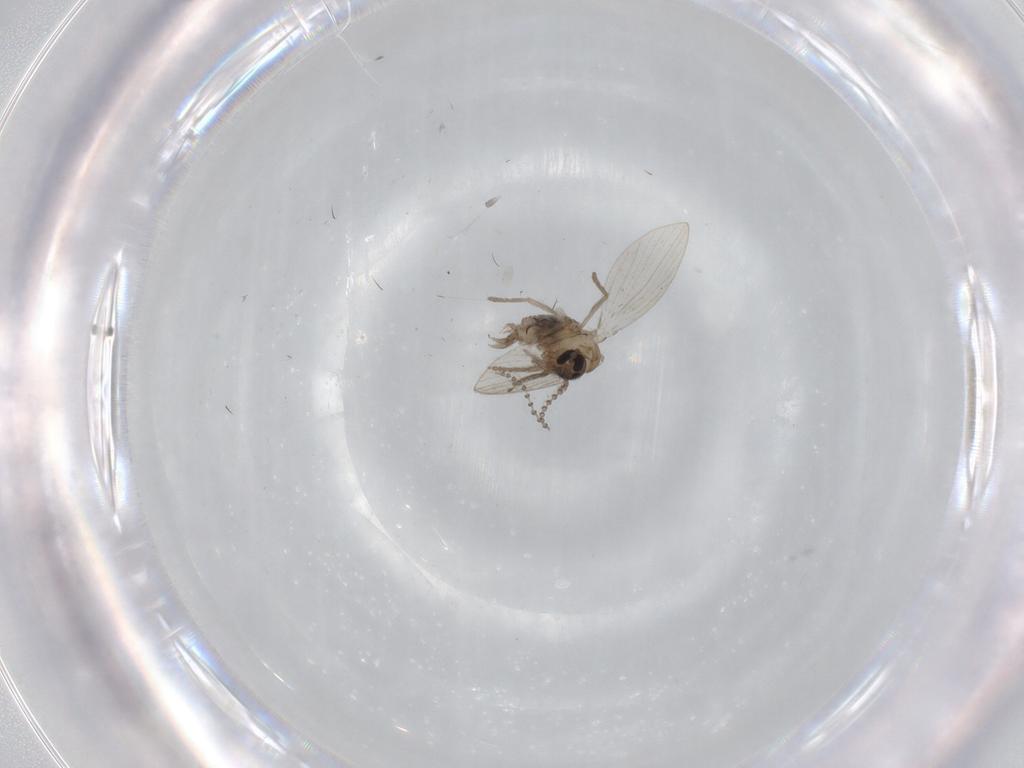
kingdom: Animalia
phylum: Arthropoda
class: Insecta
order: Diptera
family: Psychodidae
